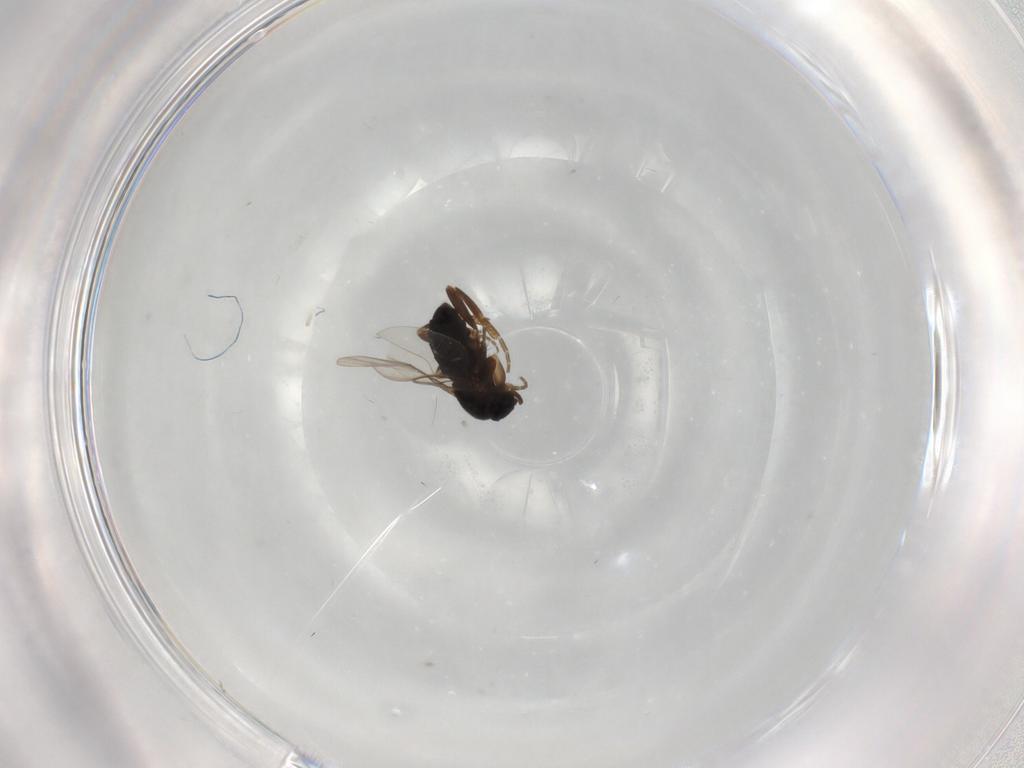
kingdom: Animalia
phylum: Arthropoda
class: Insecta
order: Diptera
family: Phoridae
